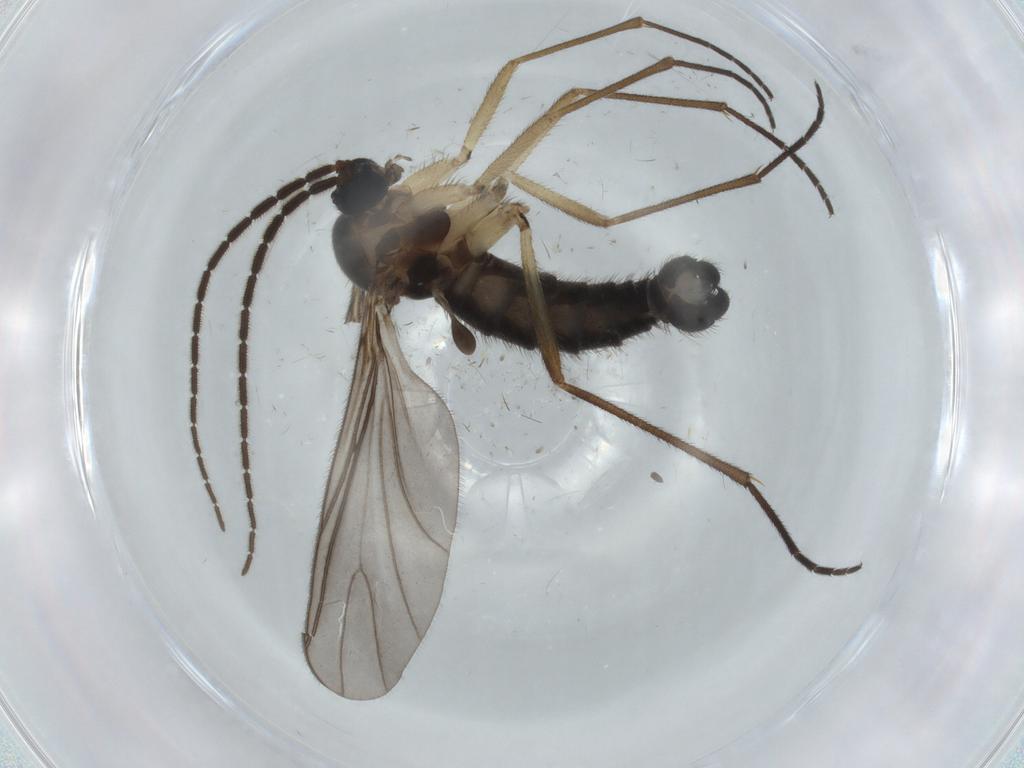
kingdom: Animalia
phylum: Arthropoda
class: Insecta
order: Diptera
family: Sciaridae
